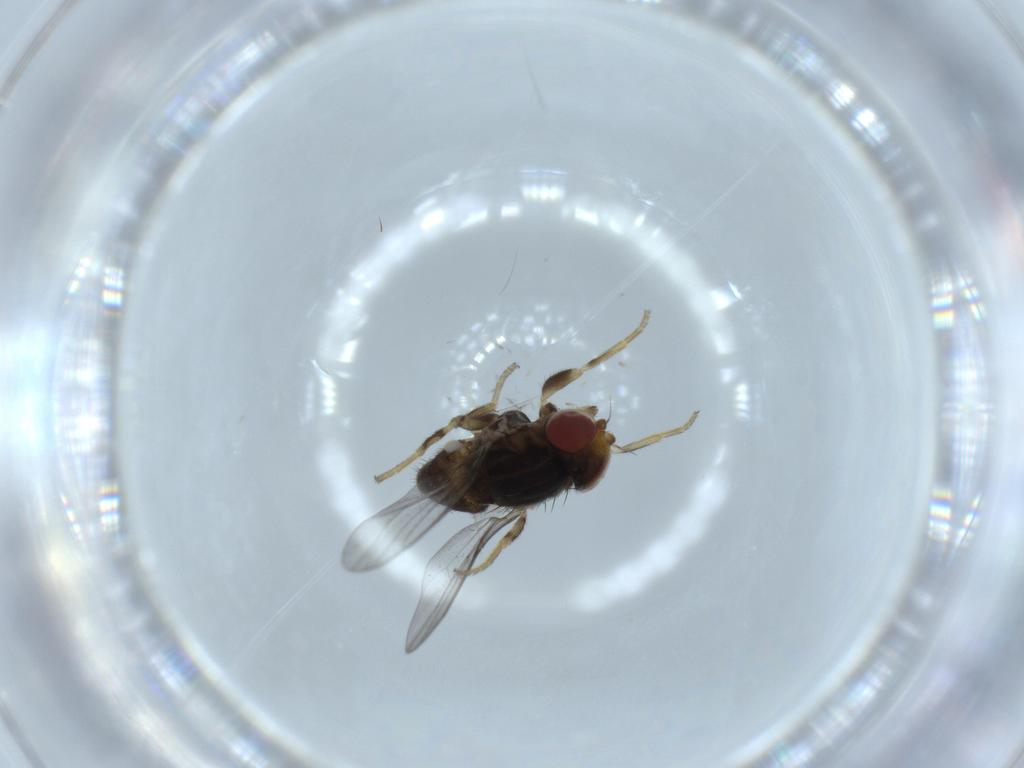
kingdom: Animalia
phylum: Arthropoda
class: Insecta
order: Diptera
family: Chloropidae
